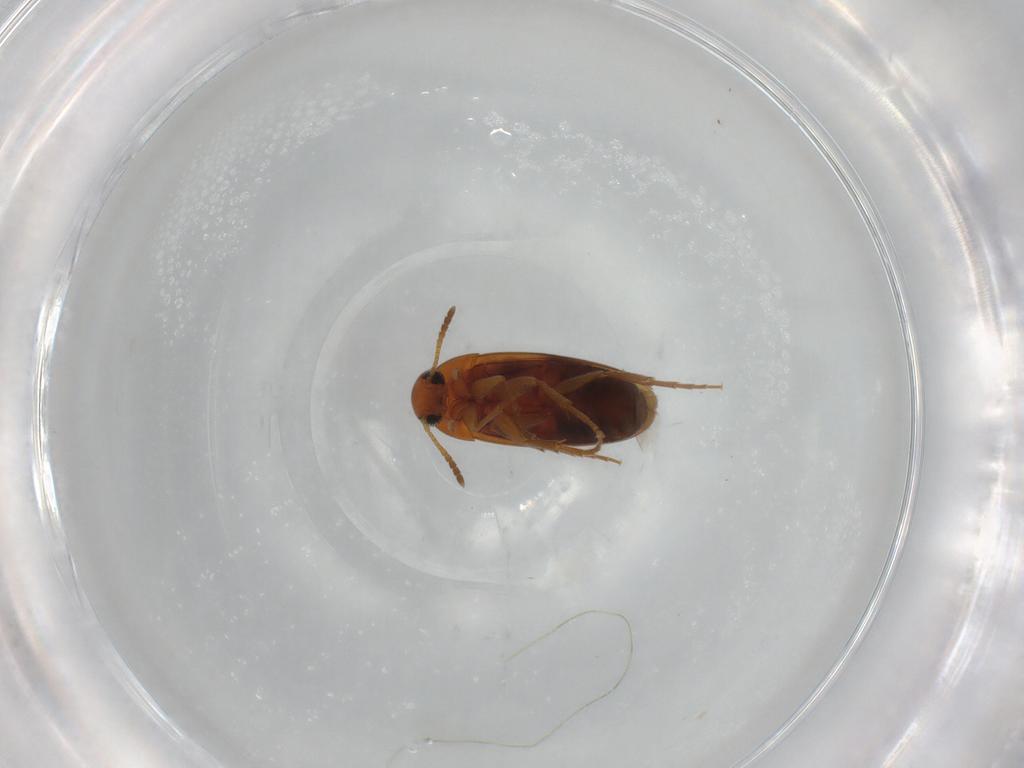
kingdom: Animalia
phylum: Arthropoda
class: Insecta
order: Coleoptera
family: Scraptiidae
